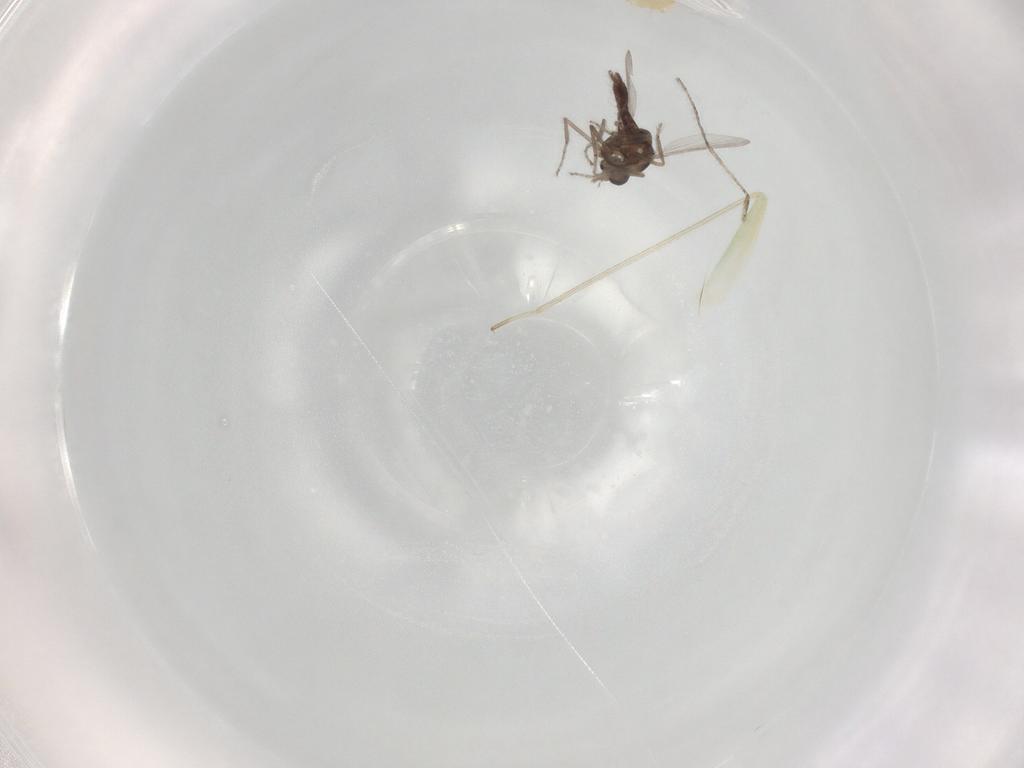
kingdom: Animalia
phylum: Arthropoda
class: Insecta
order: Diptera
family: Ceratopogonidae
